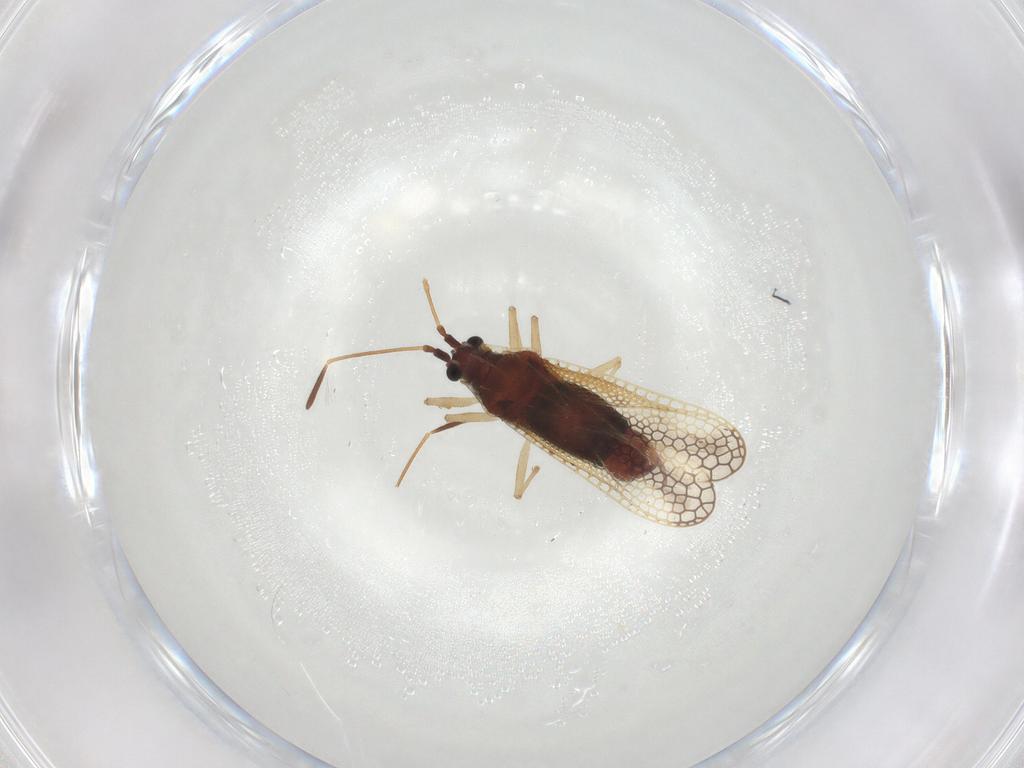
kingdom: Animalia
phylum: Arthropoda
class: Insecta
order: Hemiptera
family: Tingidae
